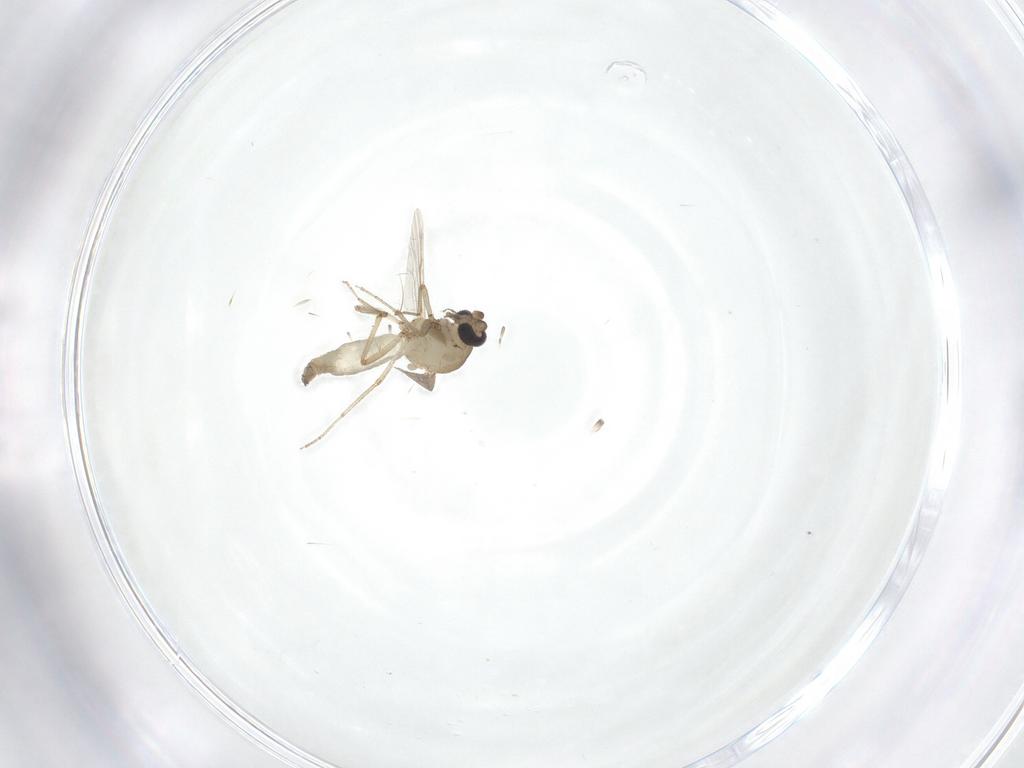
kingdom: Animalia
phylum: Arthropoda
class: Insecta
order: Diptera
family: Ceratopogonidae
